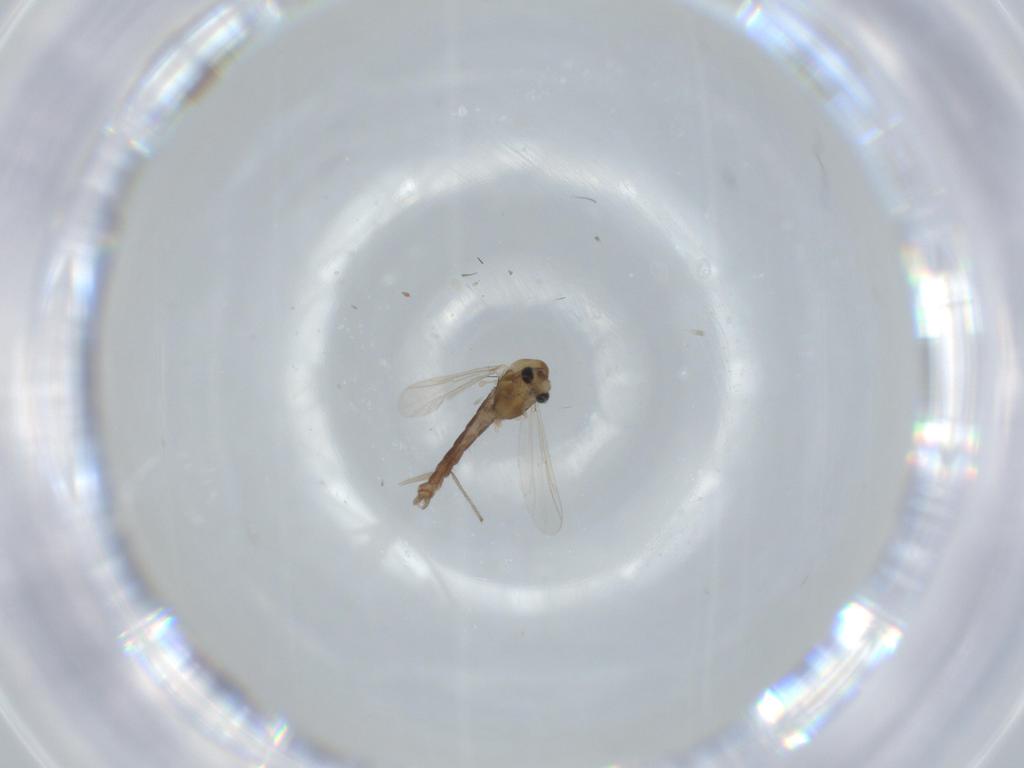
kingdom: Animalia
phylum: Arthropoda
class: Insecta
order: Diptera
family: Chironomidae
